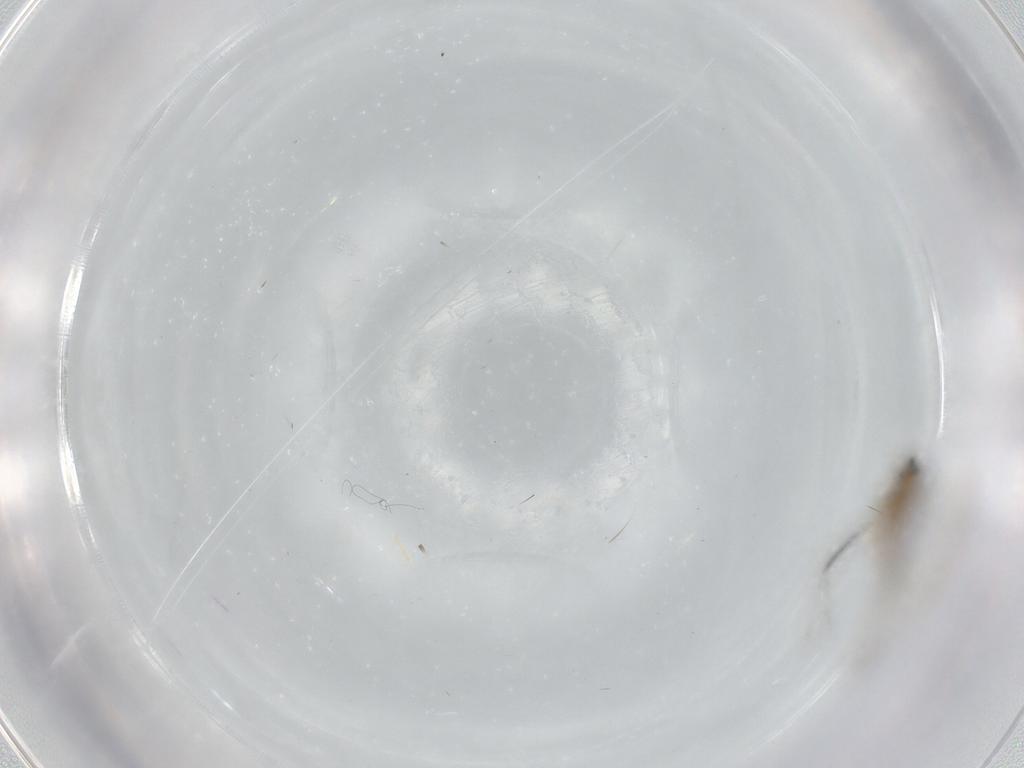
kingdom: Animalia
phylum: Arthropoda
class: Insecta
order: Diptera
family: Cecidomyiidae
